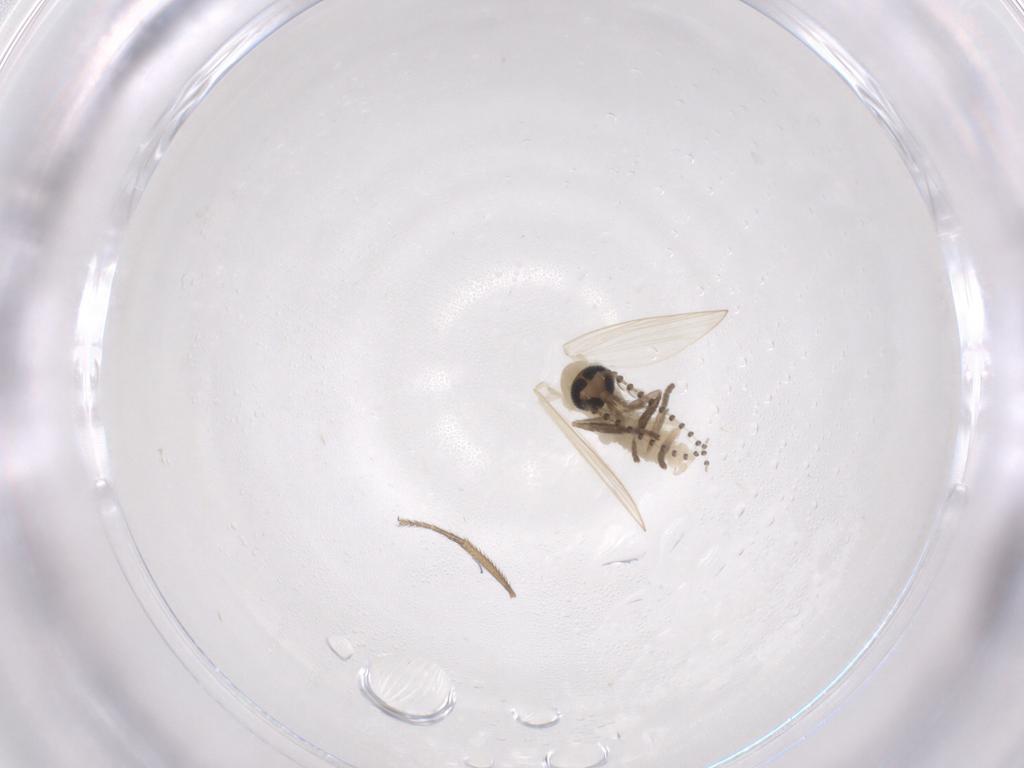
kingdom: Animalia
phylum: Arthropoda
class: Insecta
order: Diptera
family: Psychodidae
